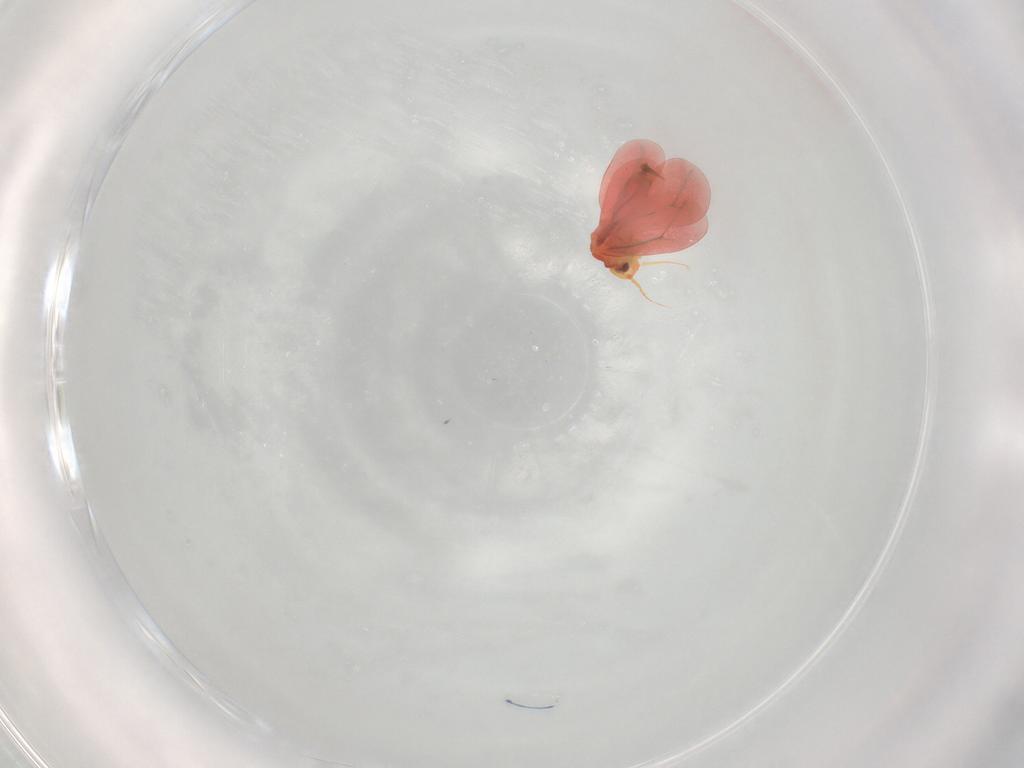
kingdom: Animalia
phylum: Arthropoda
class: Insecta
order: Hemiptera
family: Aleyrodidae
